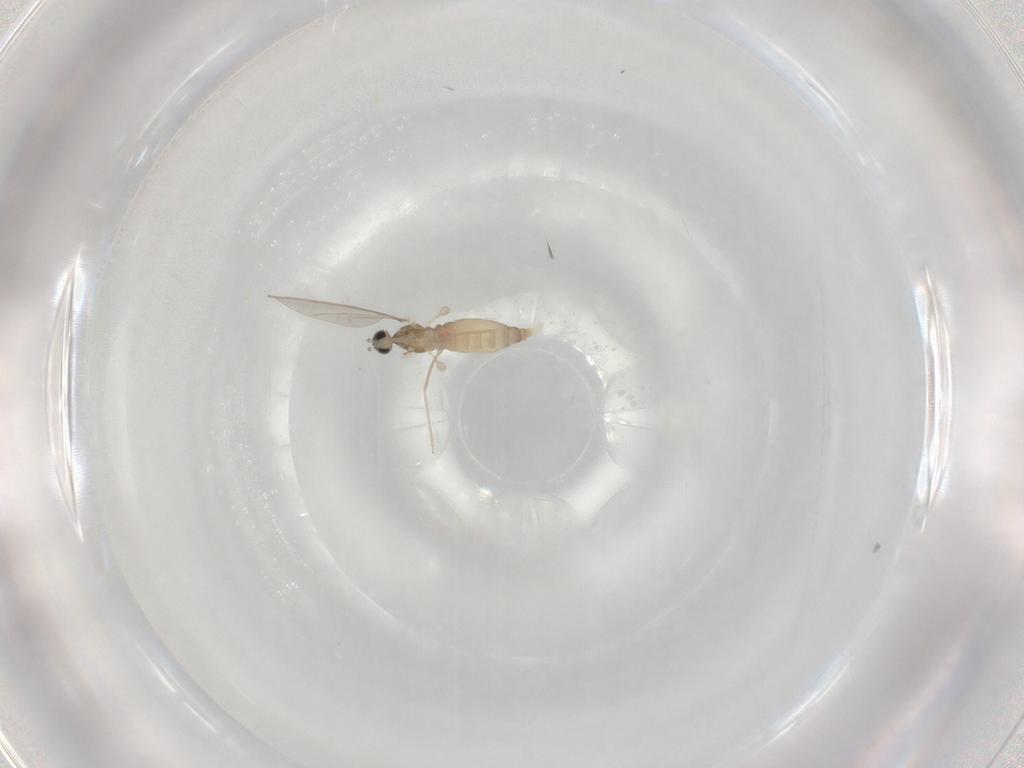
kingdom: Animalia
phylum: Arthropoda
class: Insecta
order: Diptera
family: Cecidomyiidae
